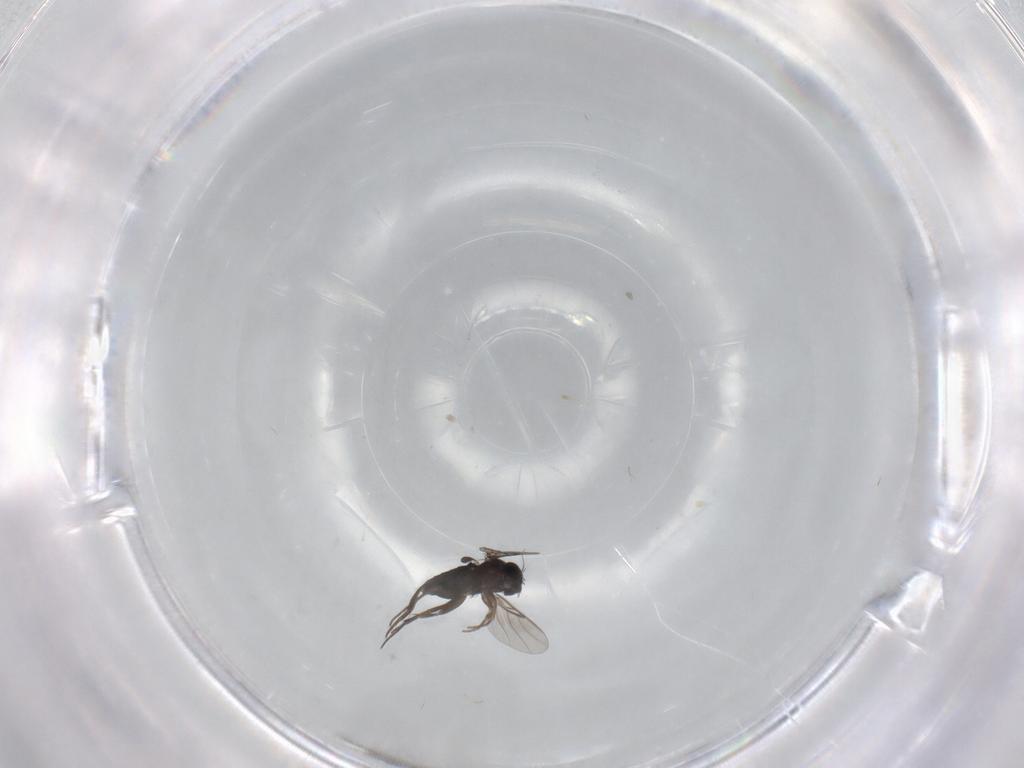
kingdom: Animalia
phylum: Arthropoda
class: Insecta
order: Diptera
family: Phoridae
